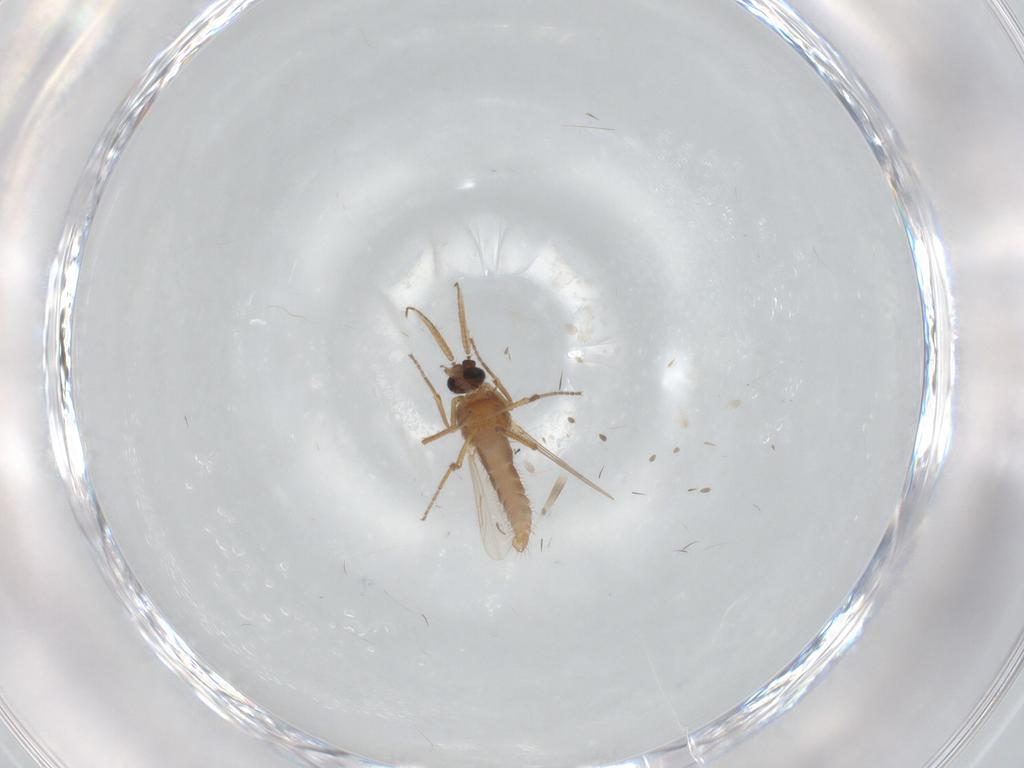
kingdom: Animalia
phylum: Arthropoda
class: Insecta
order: Diptera
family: Ceratopogonidae
